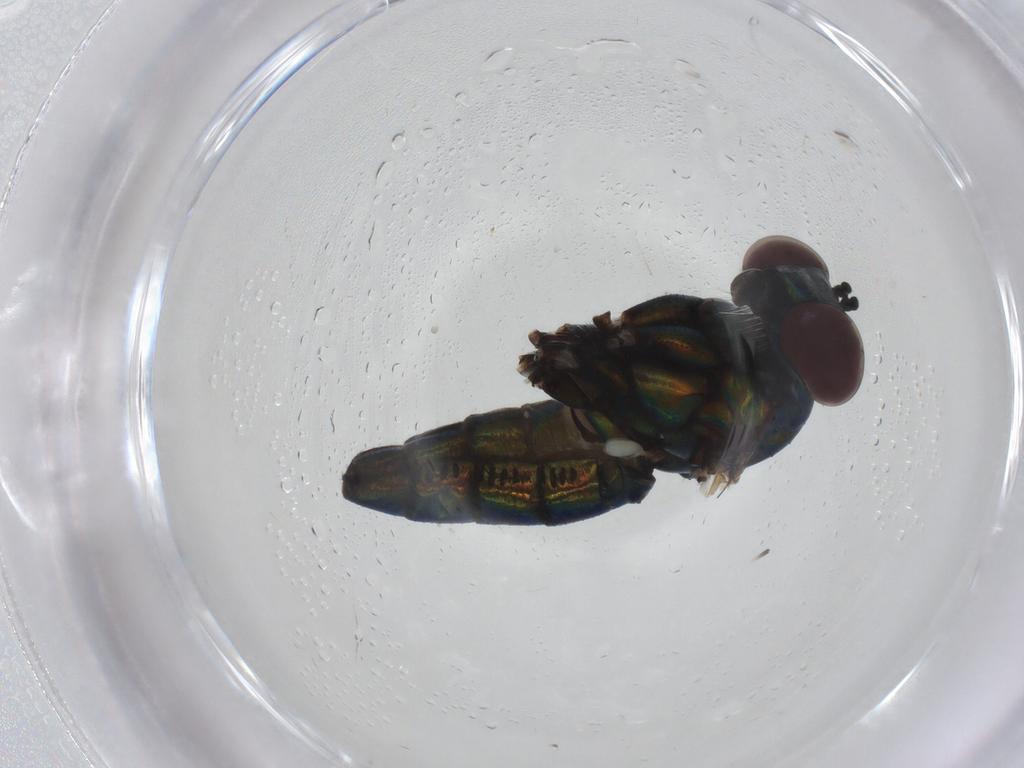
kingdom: Animalia
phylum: Arthropoda
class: Insecta
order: Diptera
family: Dolichopodidae
